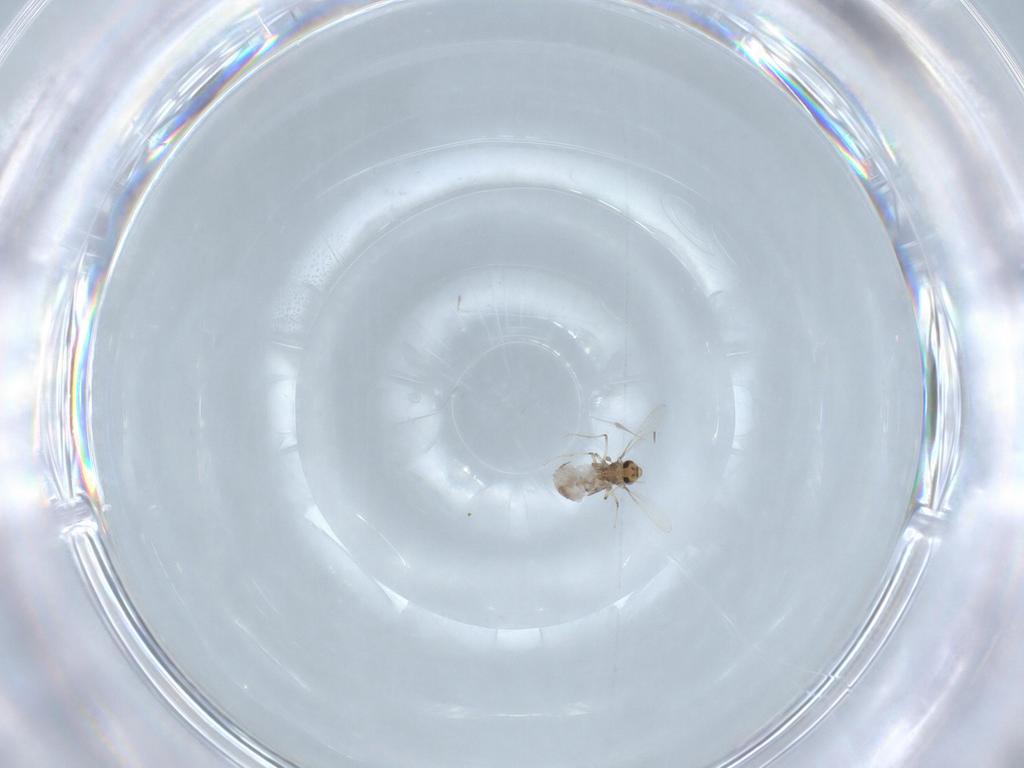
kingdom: Animalia
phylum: Arthropoda
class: Insecta
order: Diptera
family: Chironomidae
